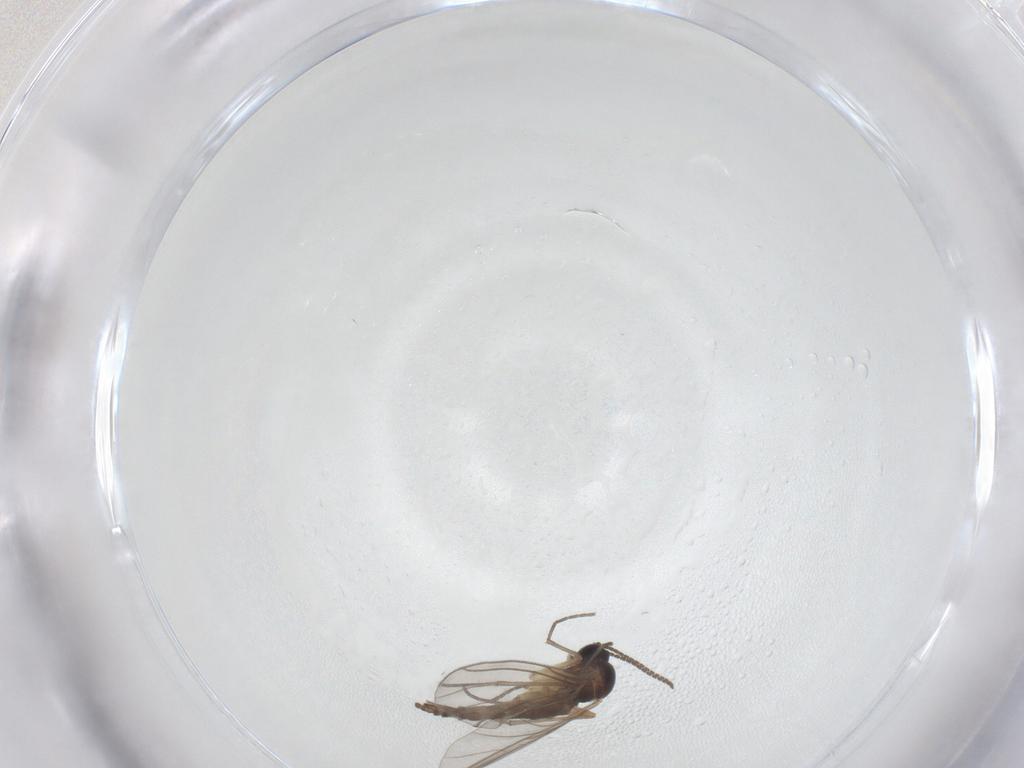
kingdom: Animalia
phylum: Arthropoda
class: Insecta
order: Diptera
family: Sciaridae
